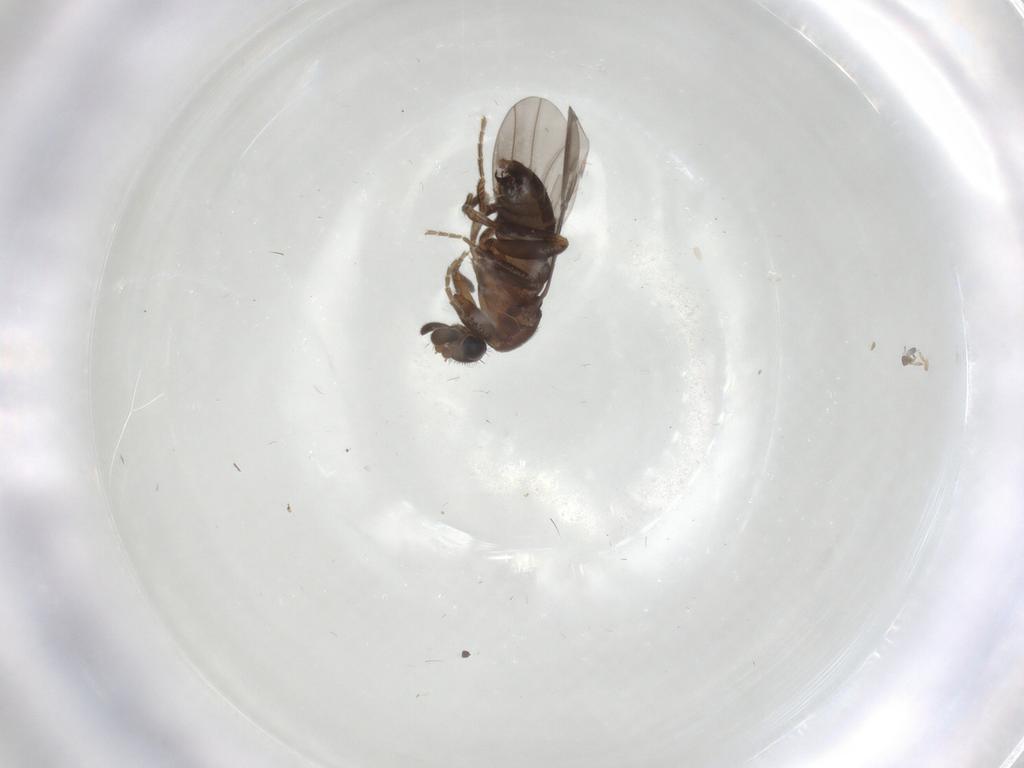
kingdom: Animalia
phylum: Arthropoda
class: Insecta
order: Diptera
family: Phoridae
